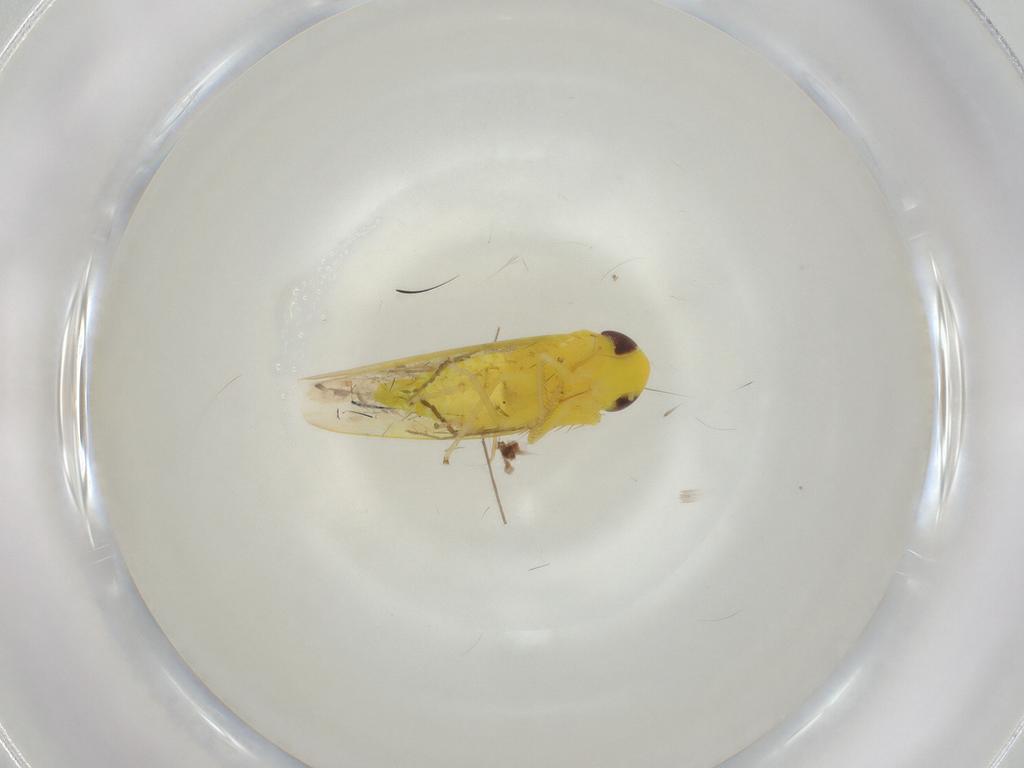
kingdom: Animalia
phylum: Arthropoda
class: Insecta
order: Hemiptera
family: Cicadellidae
